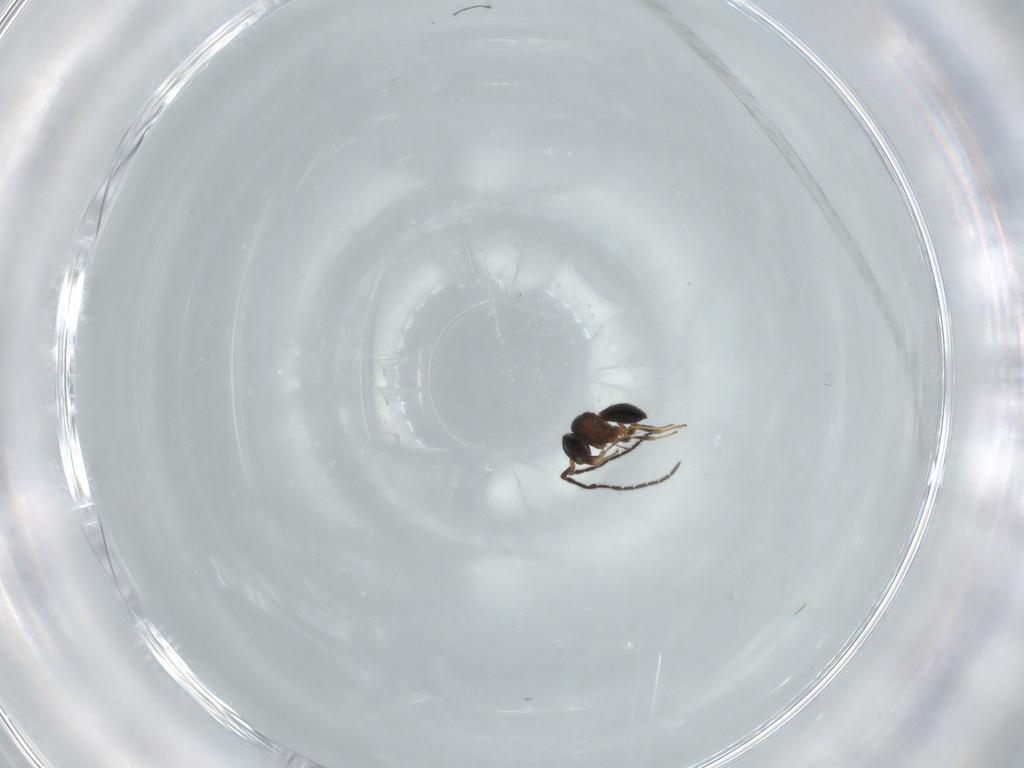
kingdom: Animalia
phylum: Arthropoda
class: Insecta
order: Hymenoptera
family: Scelionidae
